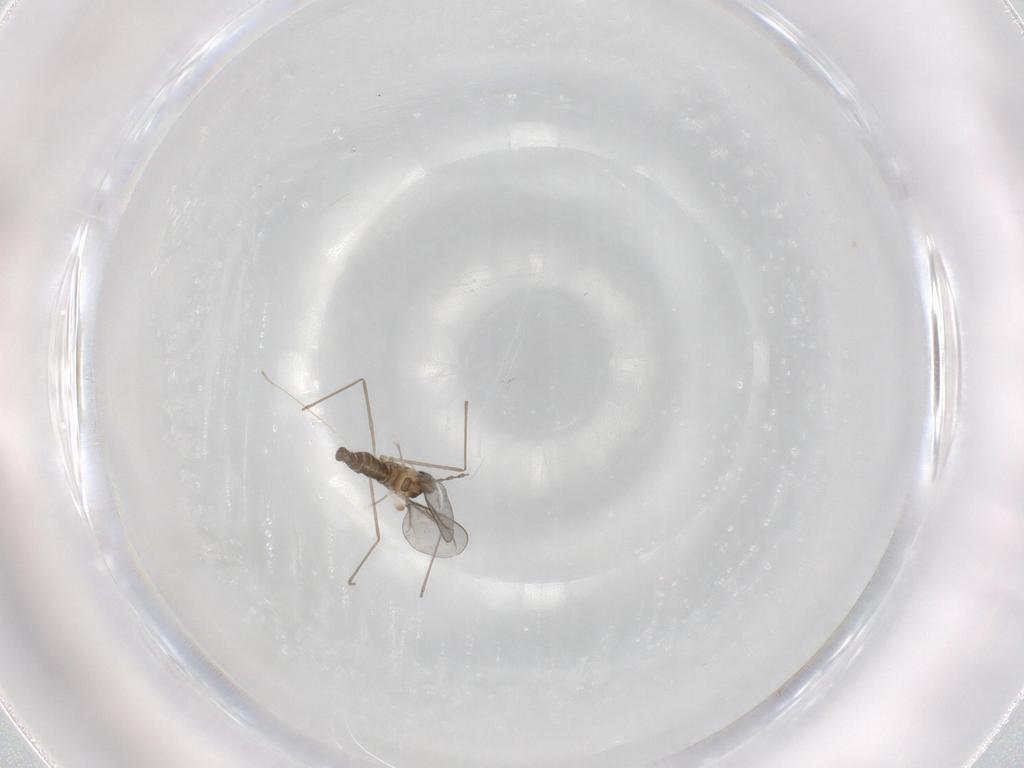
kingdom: Animalia
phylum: Arthropoda
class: Insecta
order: Diptera
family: Cecidomyiidae
